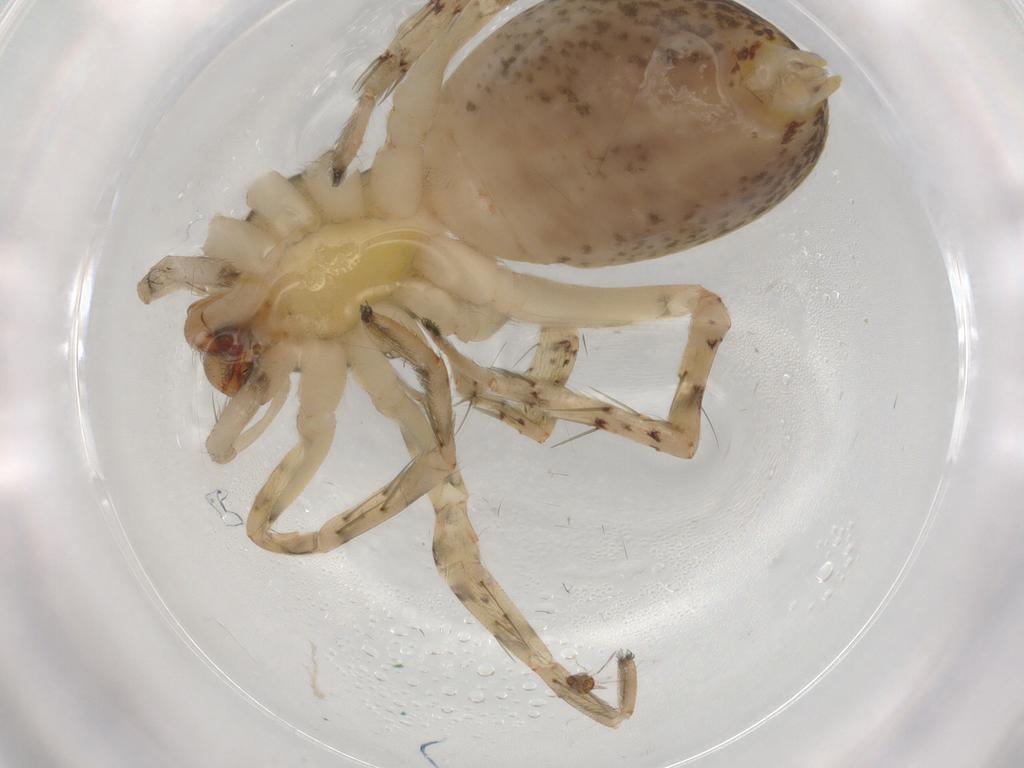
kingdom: Animalia
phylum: Arthropoda
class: Arachnida
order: Araneae
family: Anyphaenidae
